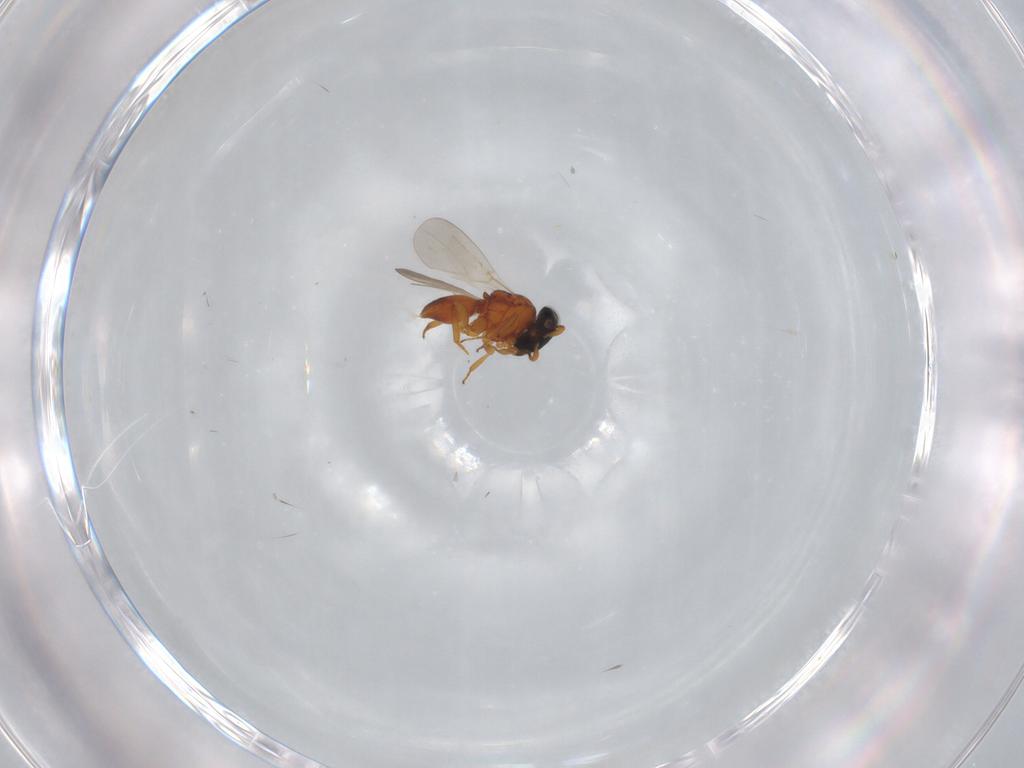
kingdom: Animalia
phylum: Arthropoda
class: Insecta
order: Hymenoptera
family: Platygastridae
